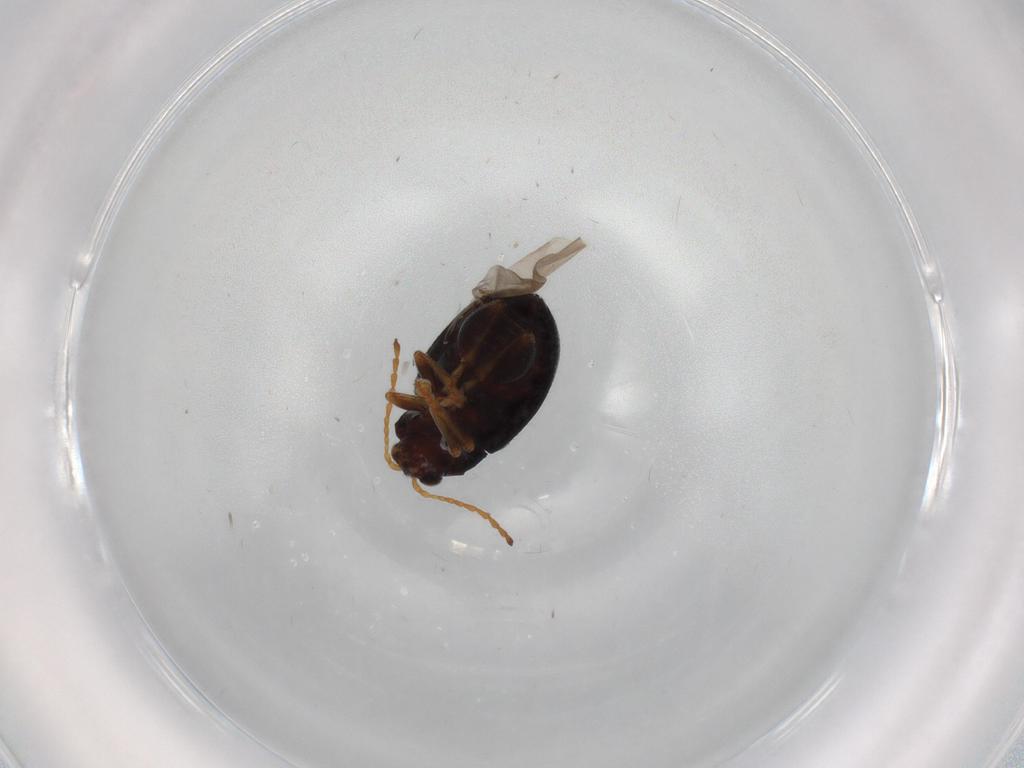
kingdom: Animalia
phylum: Arthropoda
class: Insecta
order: Coleoptera
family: Chrysomelidae
